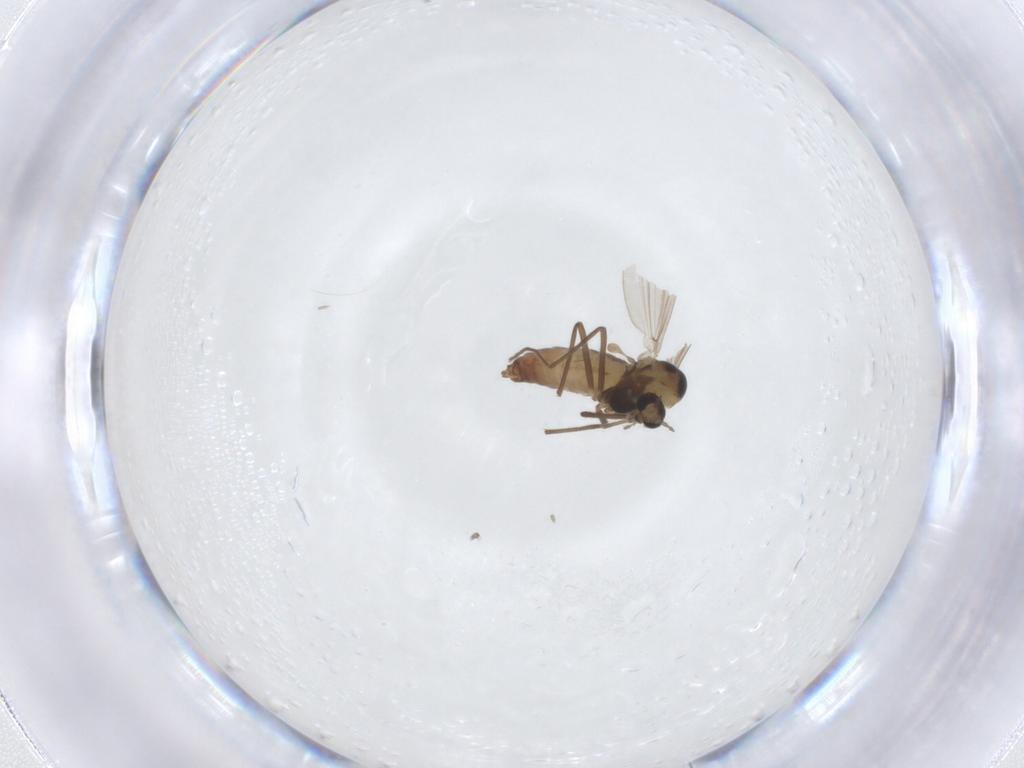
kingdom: Animalia
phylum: Arthropoda
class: Insecta
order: Diptera
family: Chironomidae
